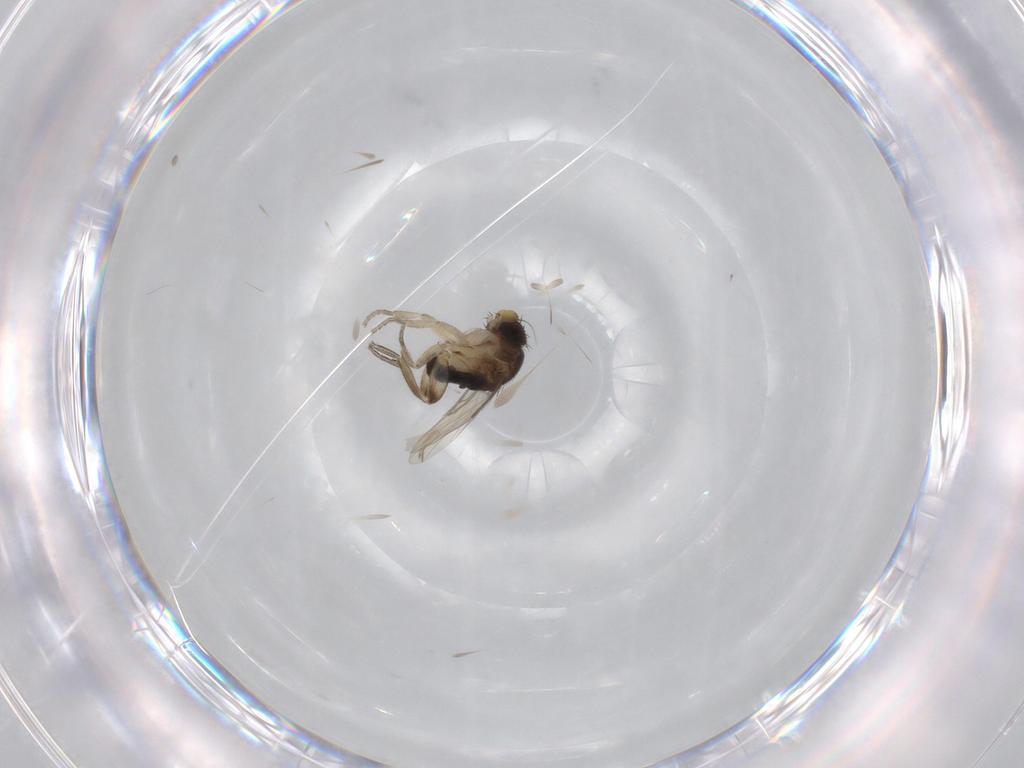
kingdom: Animalia
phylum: Arthropoda
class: Insecta
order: Diptera
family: Phoridae
